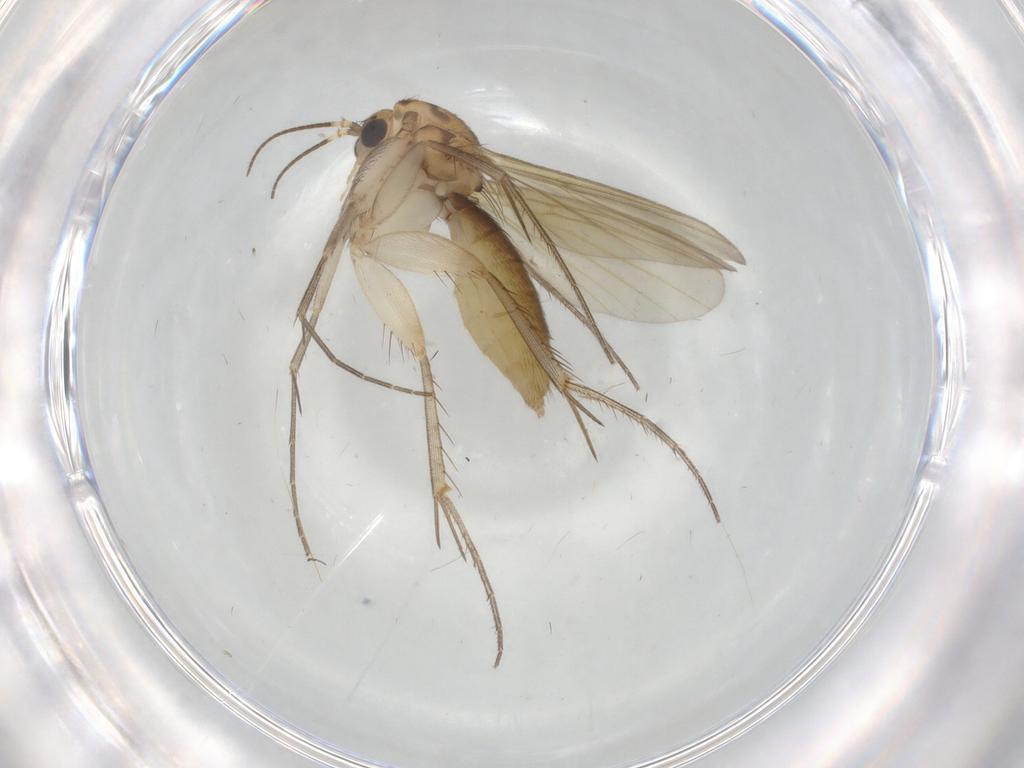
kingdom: Animalia
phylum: Arthropoda
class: Insecta
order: Diptera
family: Mycetophilidae
